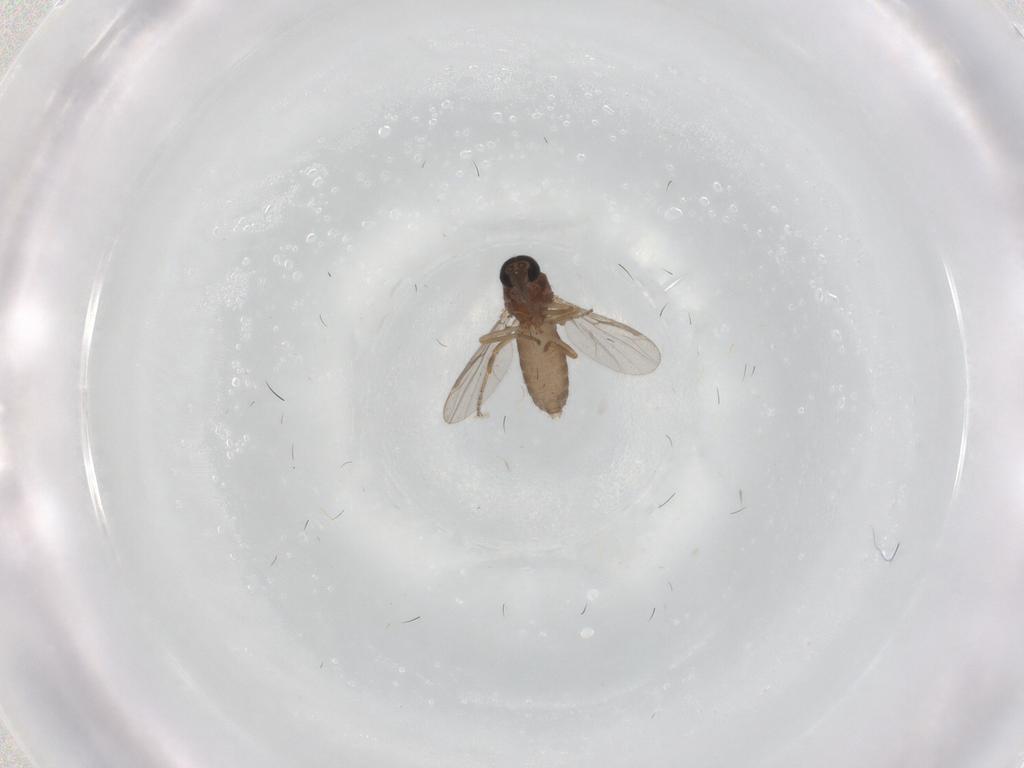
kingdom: Animalia
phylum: Arthropoda
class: Insecta
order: Diptera
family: Ceratopogonidae
